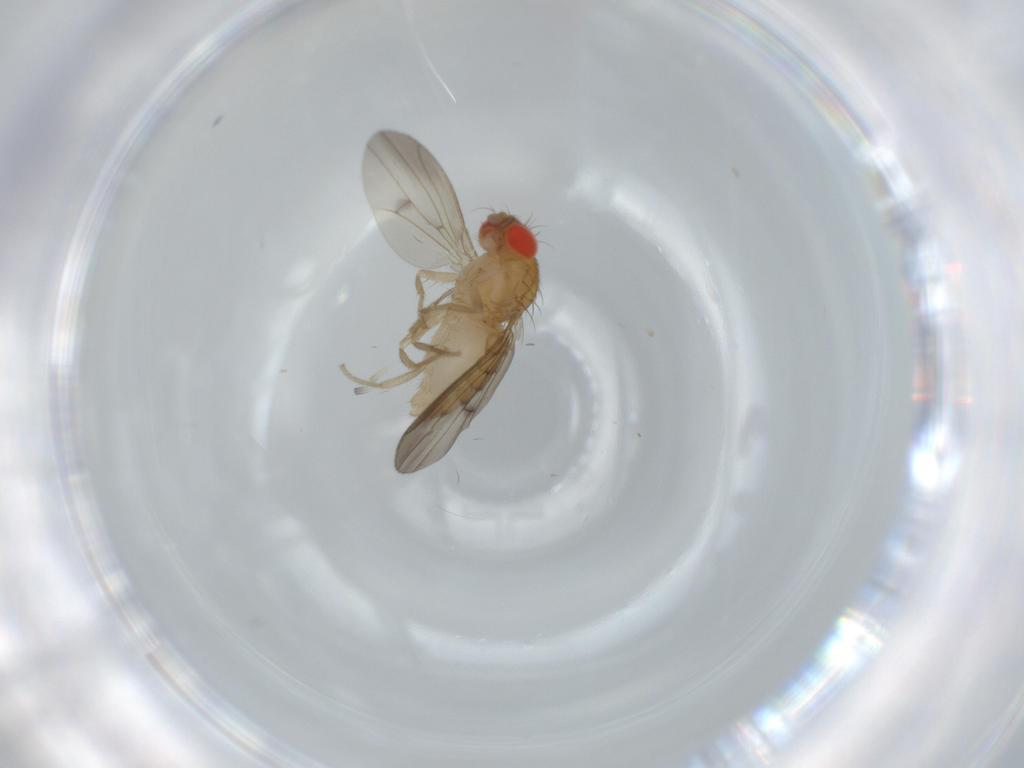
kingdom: Animalia
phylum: Arthropoda
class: Insecta
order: Diptera
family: Drosophilidae
